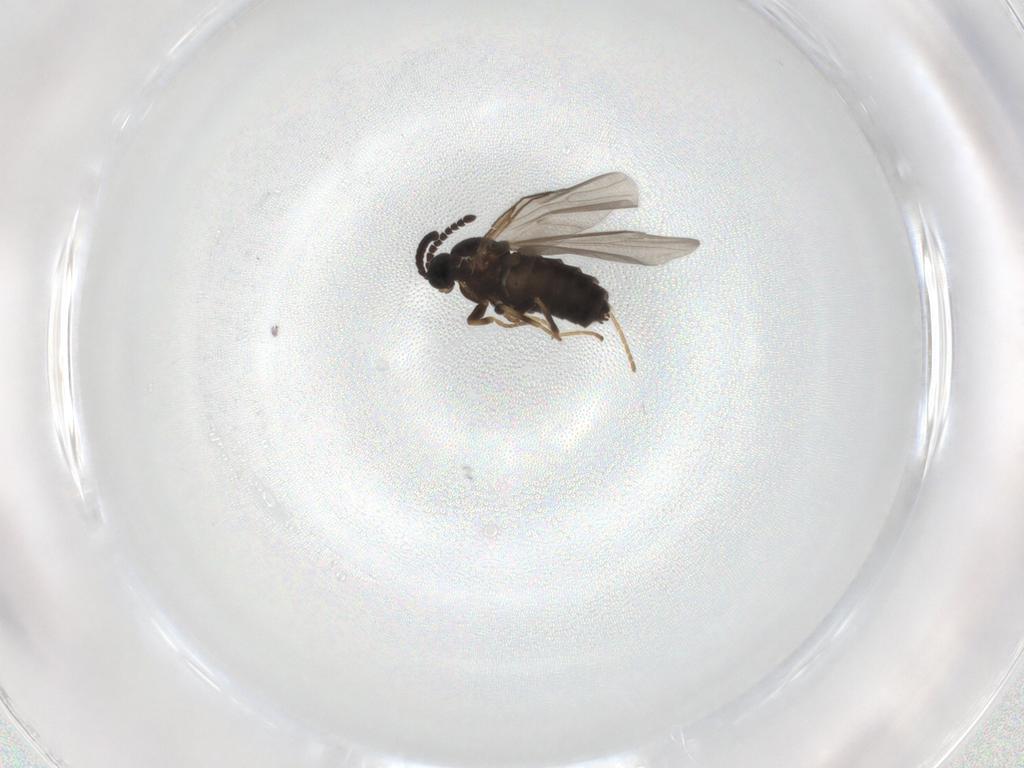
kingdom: Animalia
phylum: Arthropoda
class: Insecta
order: Diptera
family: Scatopsidae
